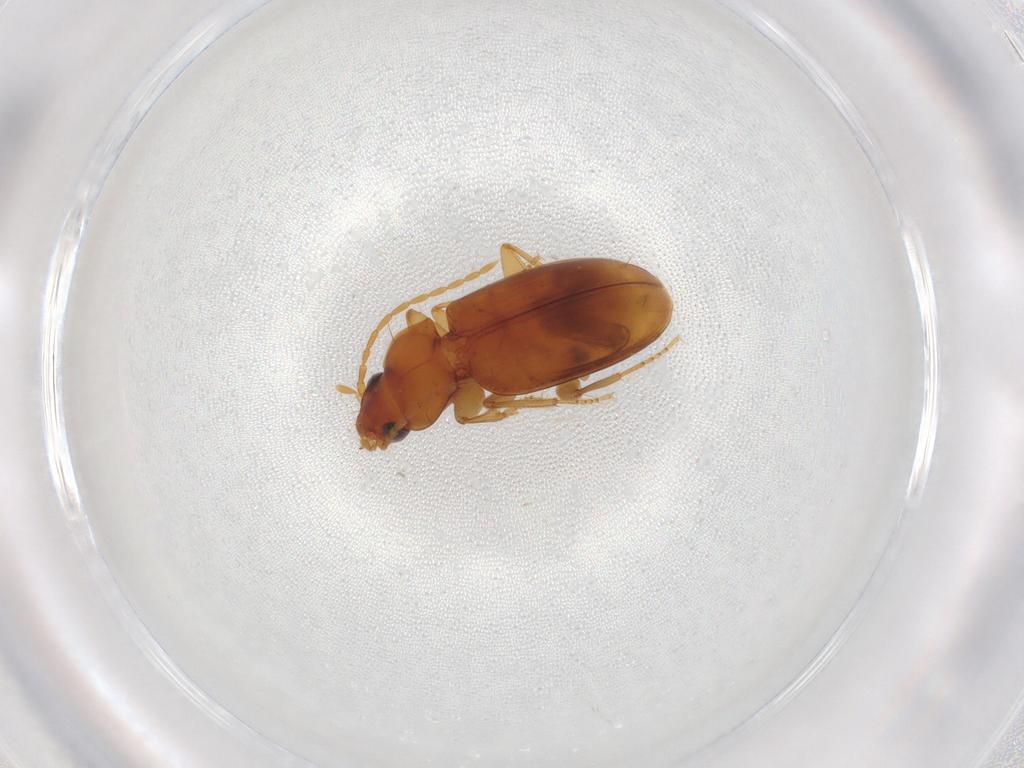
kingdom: Animalia
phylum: Arthropoda
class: Insecta
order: Coleoptera
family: Carabidae
